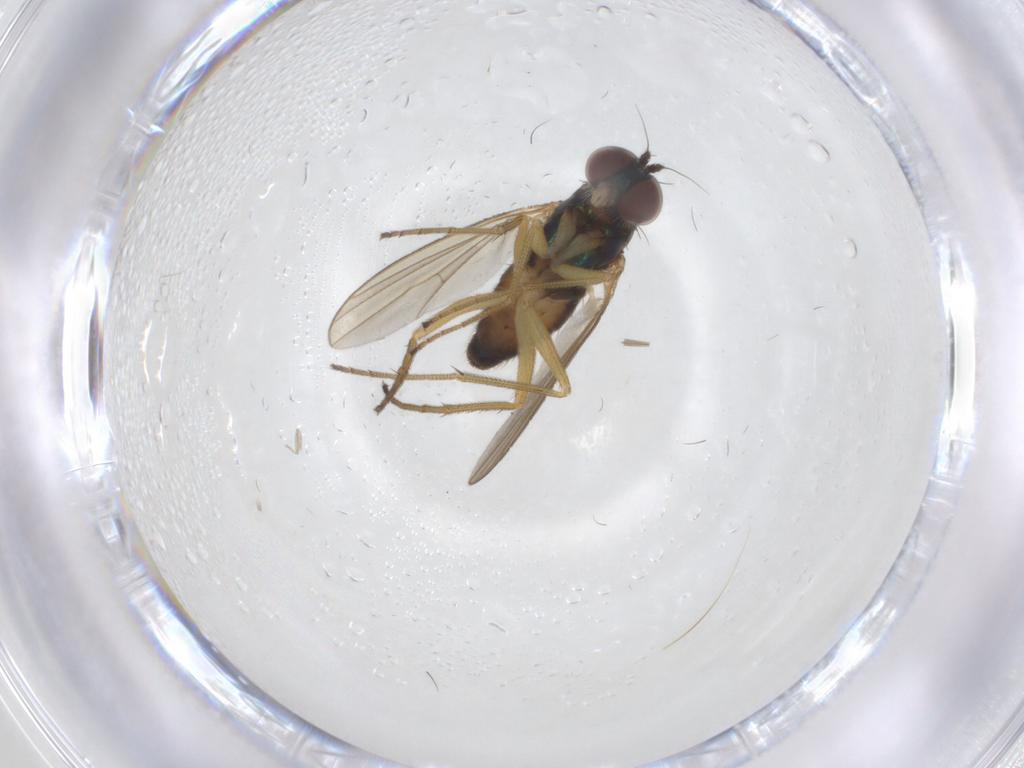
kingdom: Animalia
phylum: Arthropoda
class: Insecta
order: Diptera
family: Dolichopodidae
